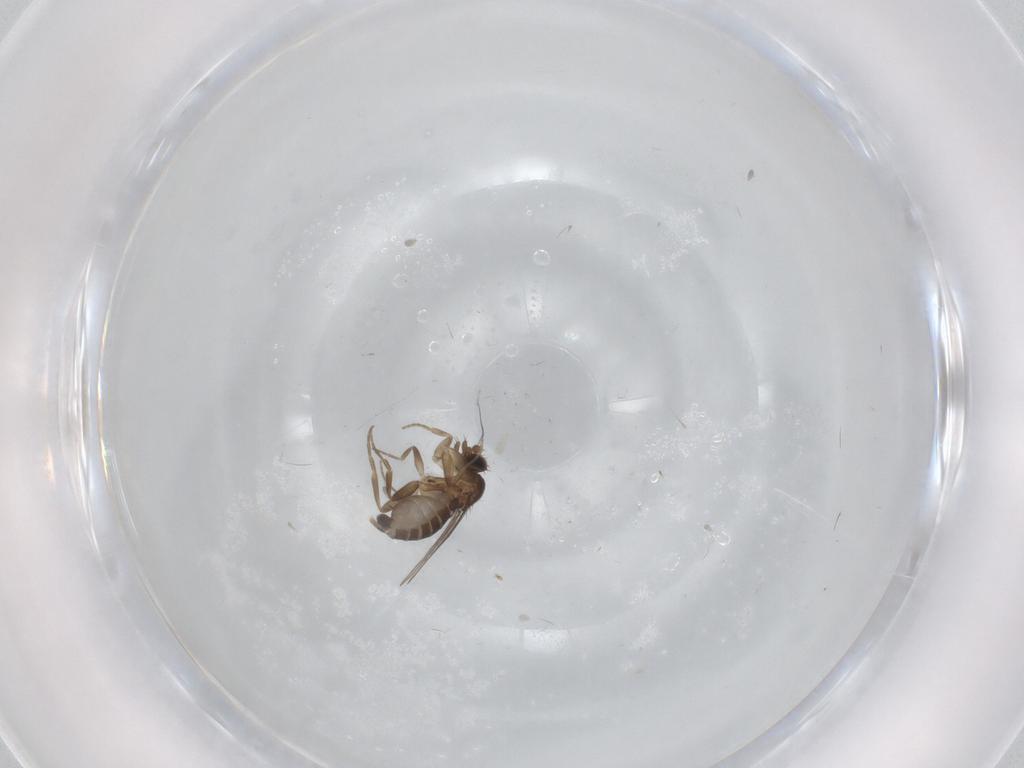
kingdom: Animalia
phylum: Arthropoda
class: Insecta
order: Diptera
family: Phoridae
